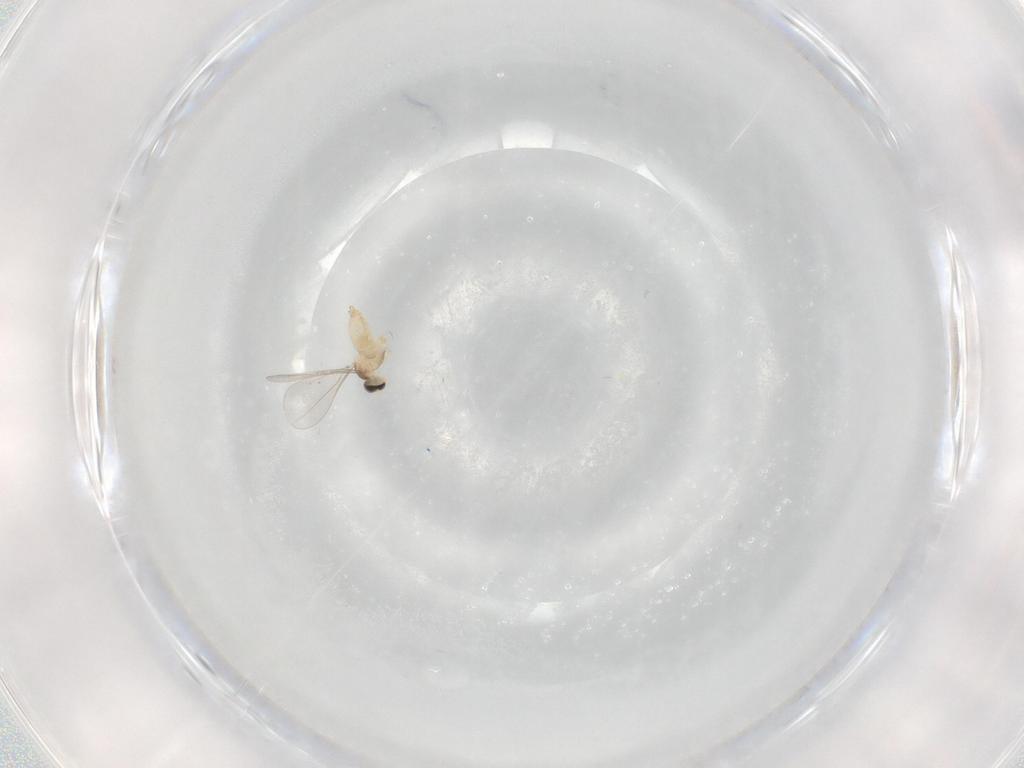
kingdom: Animalia
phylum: Arthropoda
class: Insecta
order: Diptera
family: Cecidomyiidae
